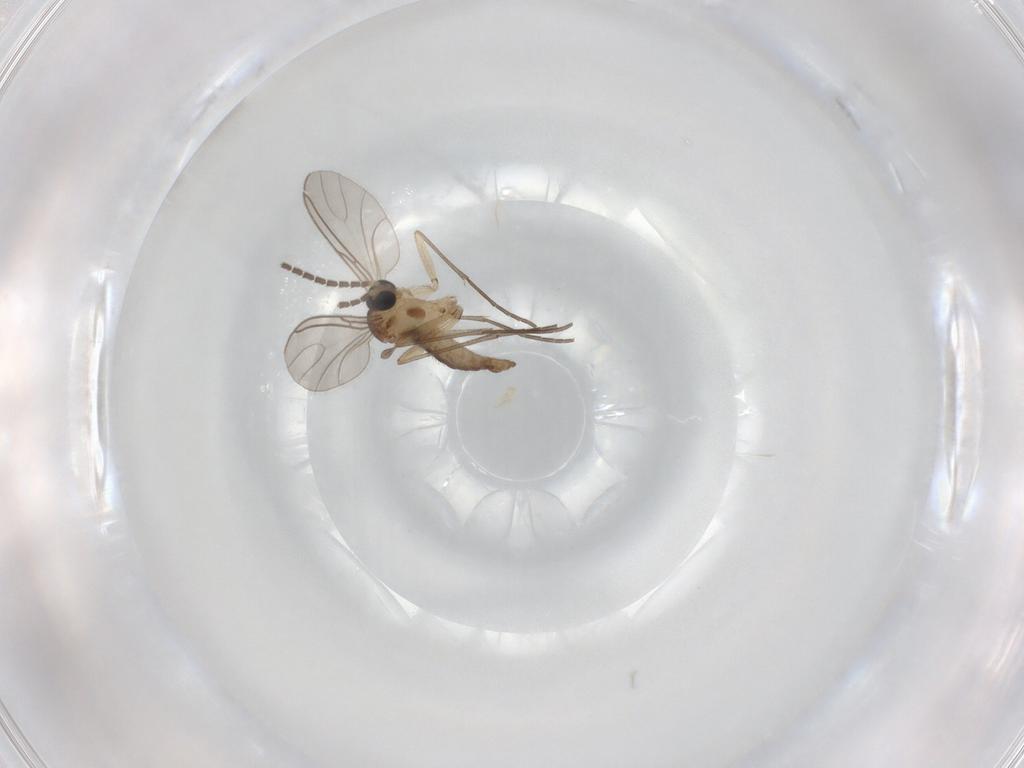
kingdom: Animalia
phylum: Arthropoda
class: Insecta
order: Diptera
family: Sciaridae
